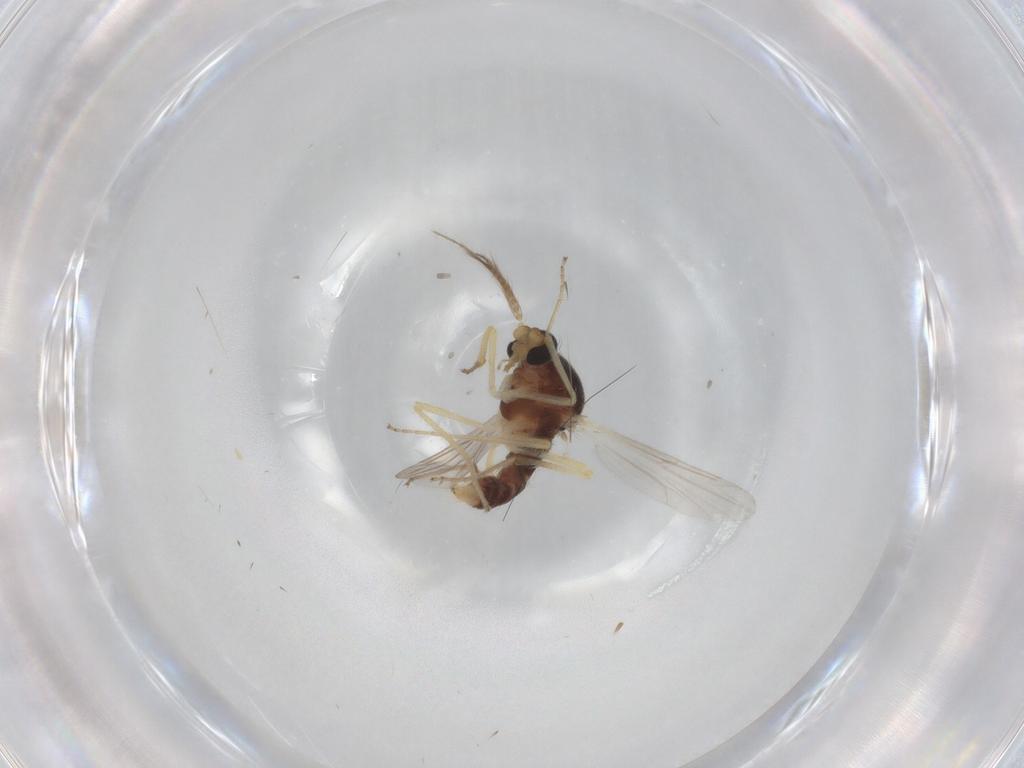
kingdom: Animalia
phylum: Arthropoda
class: Insecta
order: Diptera
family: Ceratopogonidae
